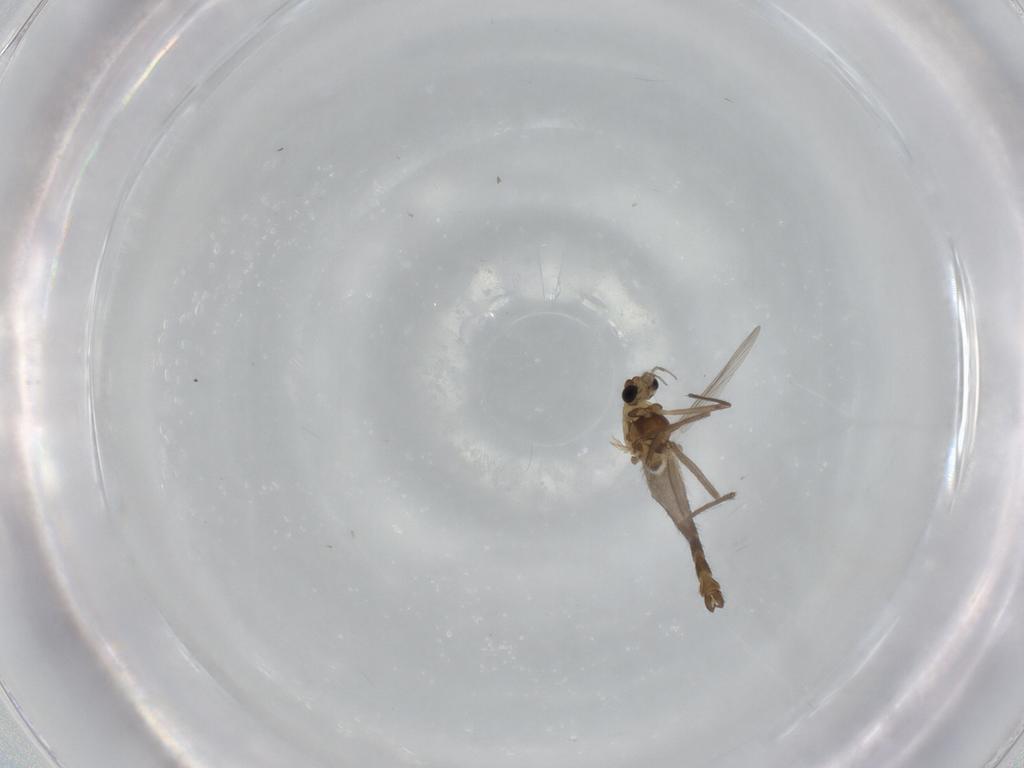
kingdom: Animalia
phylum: Arthropoda
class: Insecta
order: Diptera
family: Chironomidae
